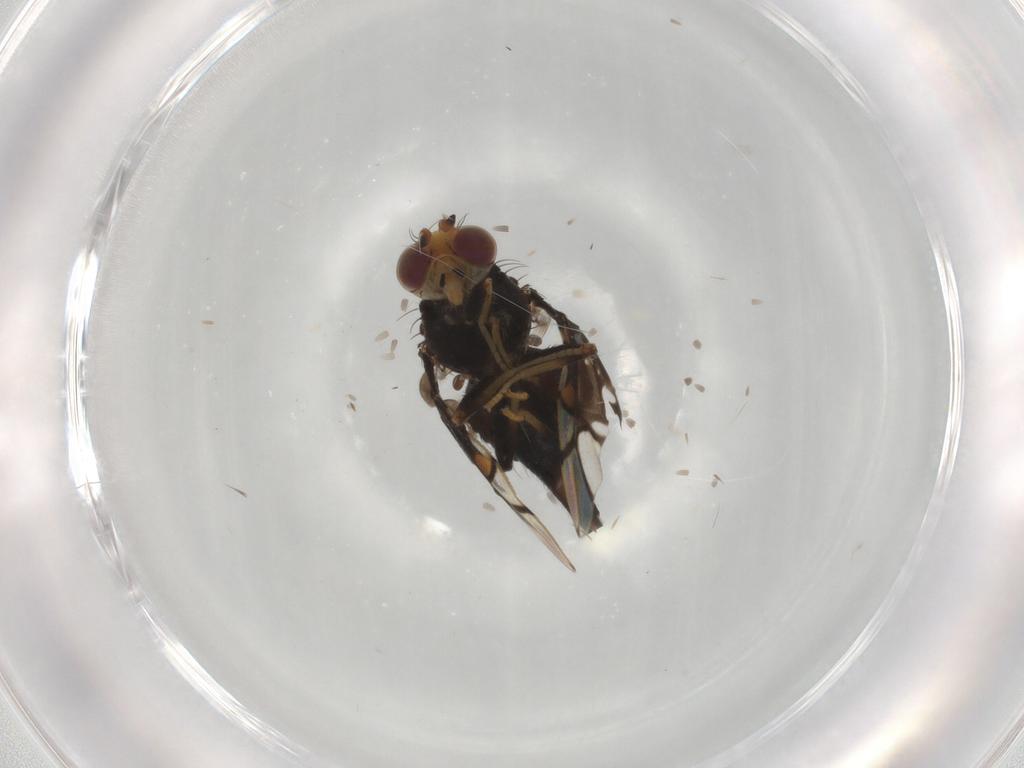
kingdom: Animalia
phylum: Arthropoda
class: Insecta
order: Diptera
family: Tephritidae
